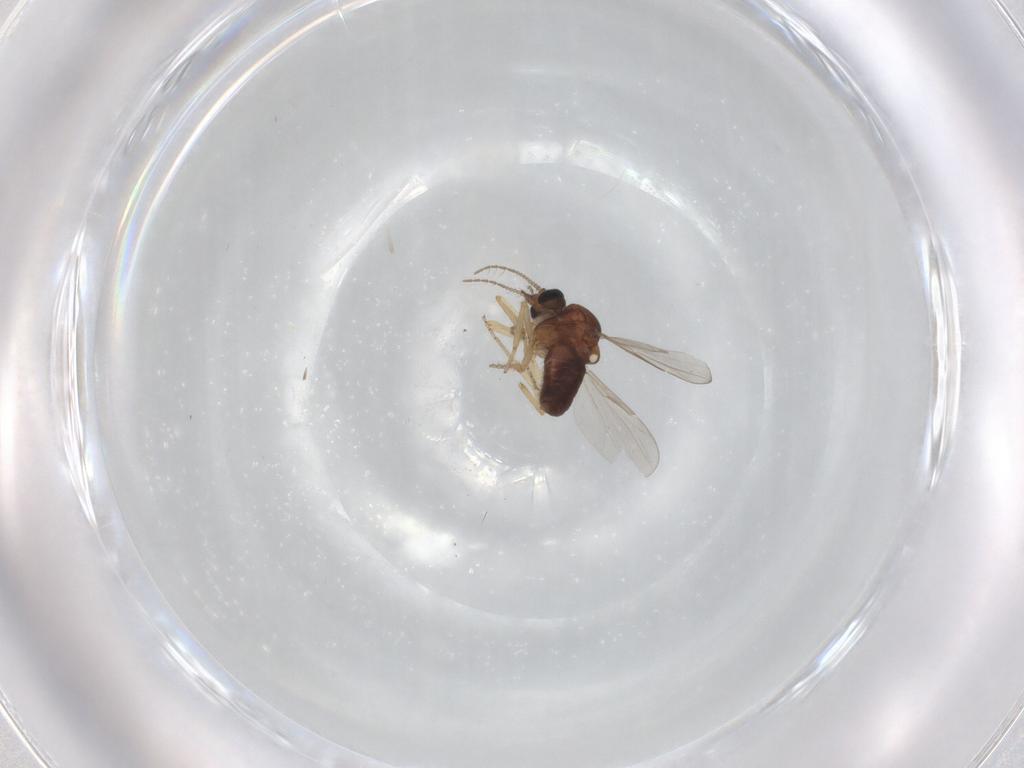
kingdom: Animalia
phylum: Arthropoda
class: Insecta
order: Diptera
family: Ceratopogonidae
